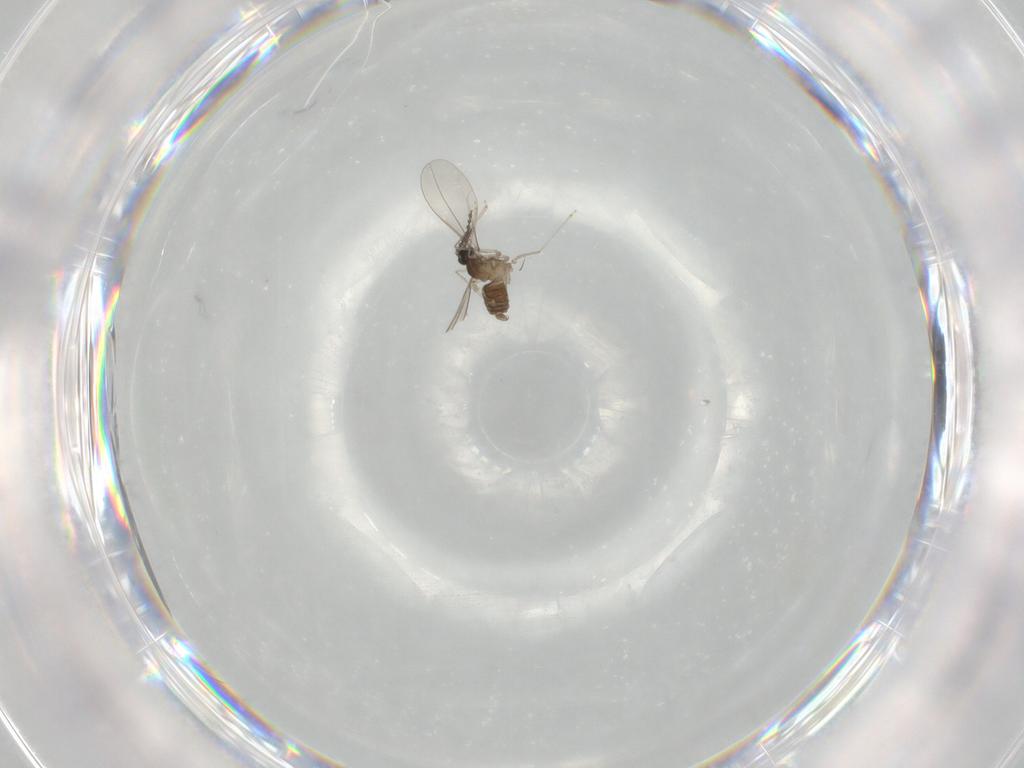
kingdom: Animalia
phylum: Arthropoda
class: Insecta
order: Diptera
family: Cecidomyiidae
